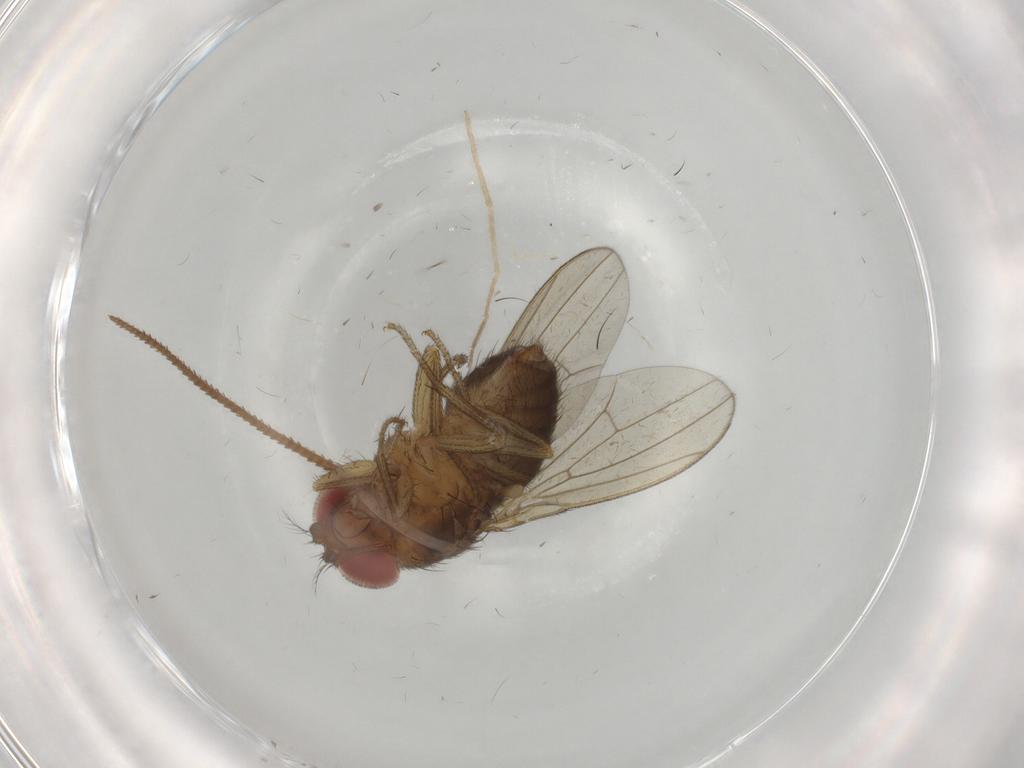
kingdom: Animalia
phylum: Arthropoda
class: Insecta
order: Diptera
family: Drosophilidae
